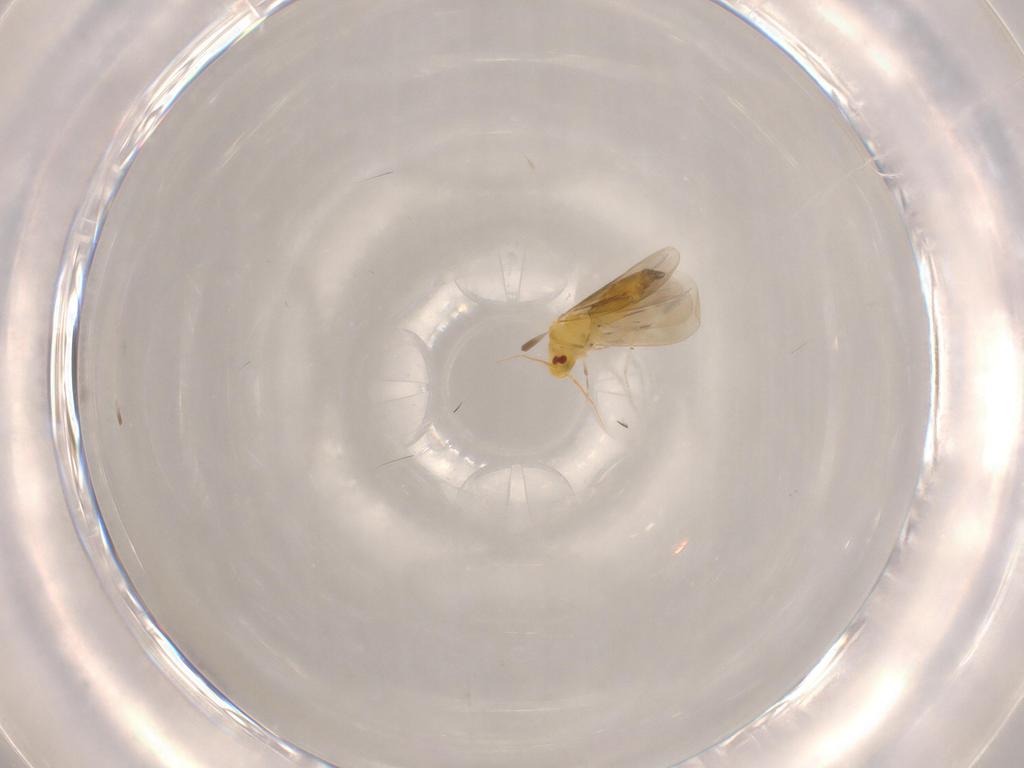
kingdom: Animalia
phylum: Arthropoda
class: Insecta
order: Hemiptera
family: Aleyrodidae
